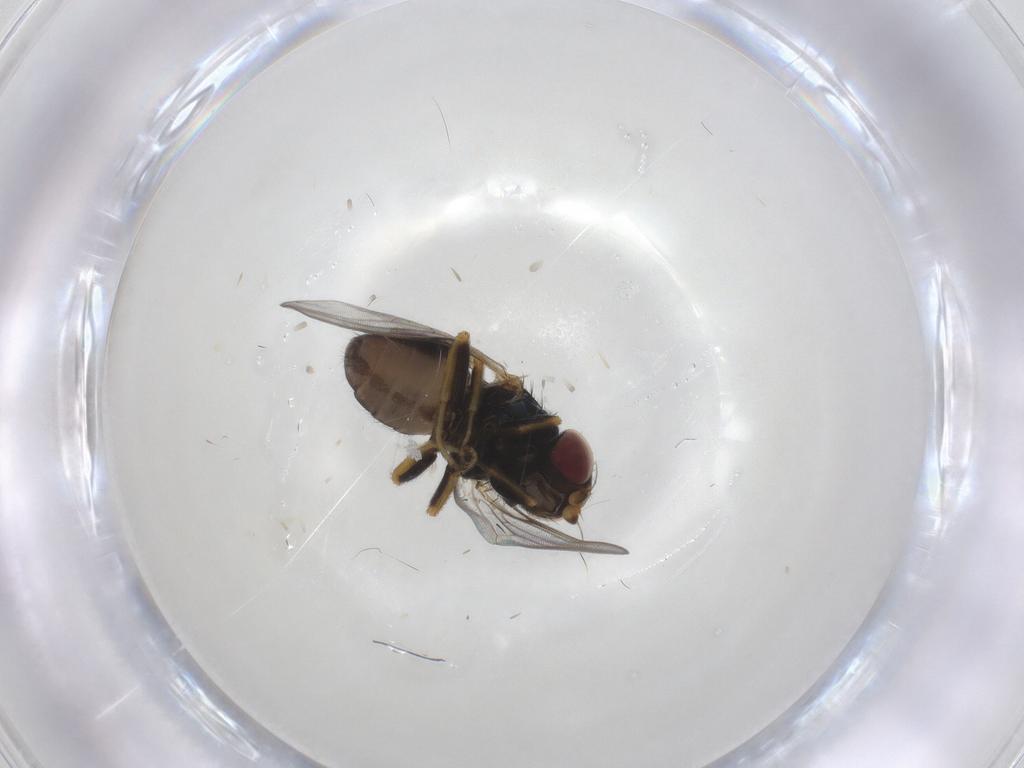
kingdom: Animalia
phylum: Arthropoda
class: Insecta
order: Diptera
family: Chloropidae
